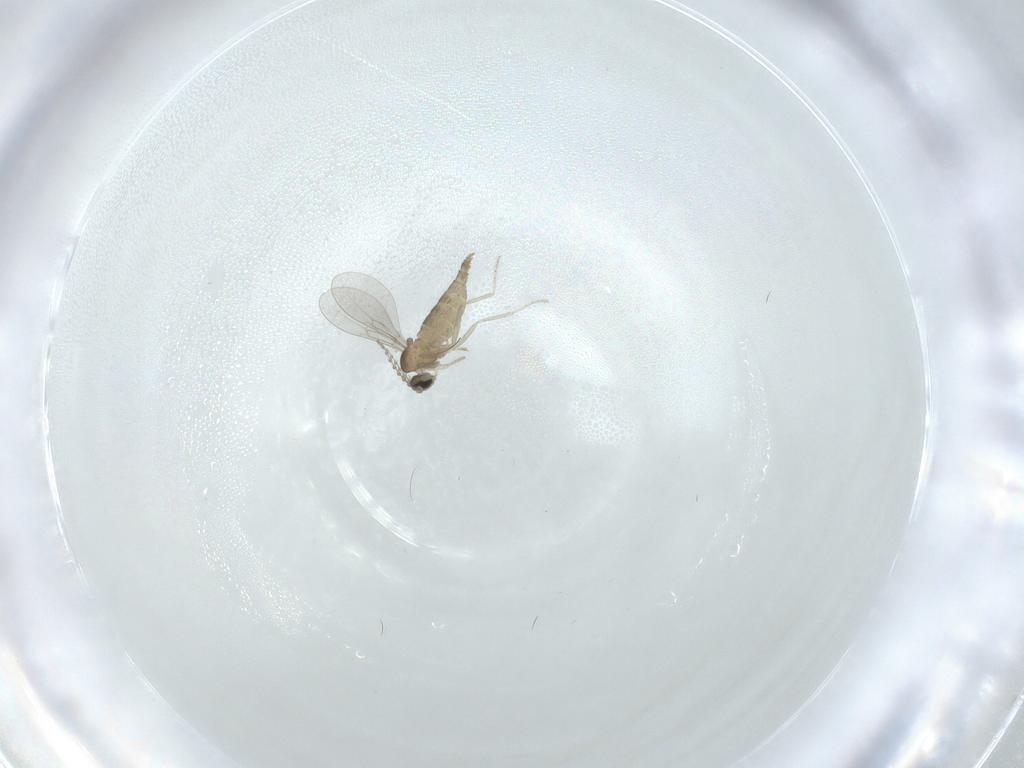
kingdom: Animalia
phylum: Arthropoda
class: Insecta
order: Diptera
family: Cecidomyiidae
